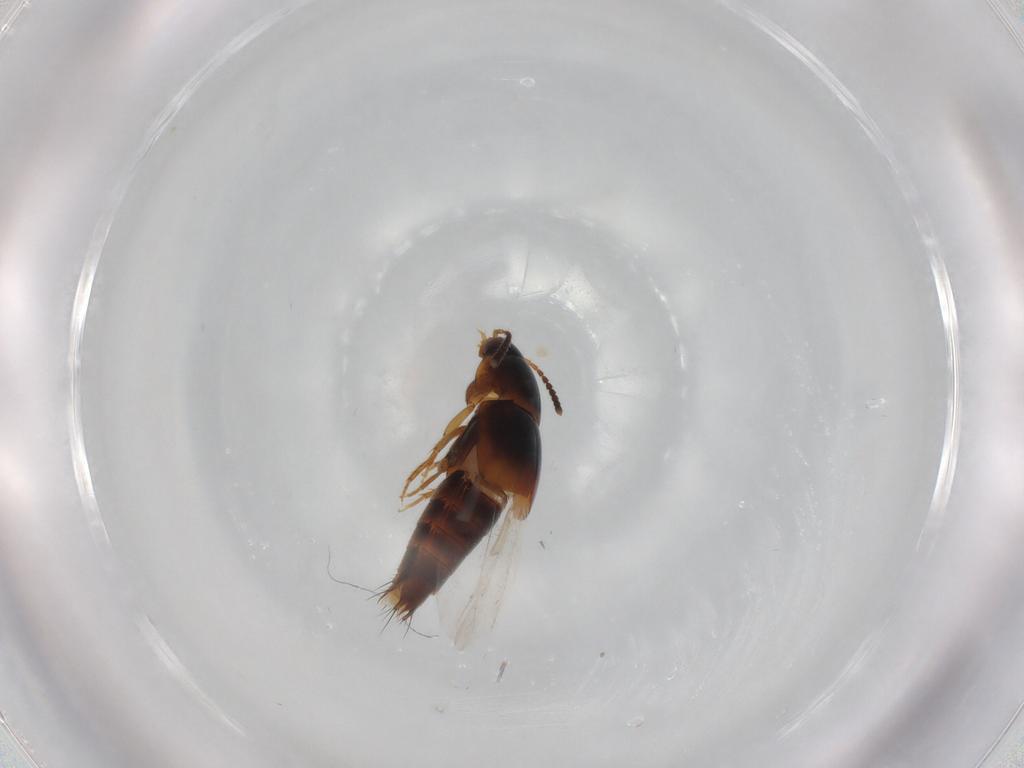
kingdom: Animalia
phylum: Arthropoda
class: Insecta
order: Coleoptera
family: Staphylinidae
